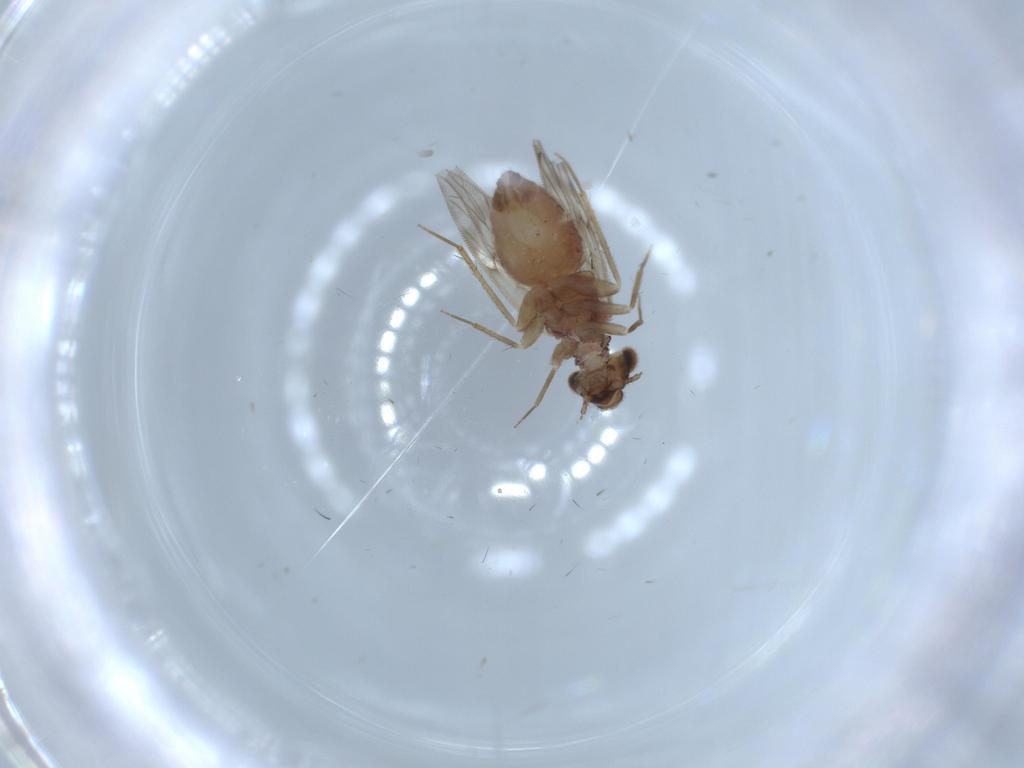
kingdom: Animalia
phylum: Arthropoda
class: Insecta
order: Psocodea
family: Lepidopsocidae
